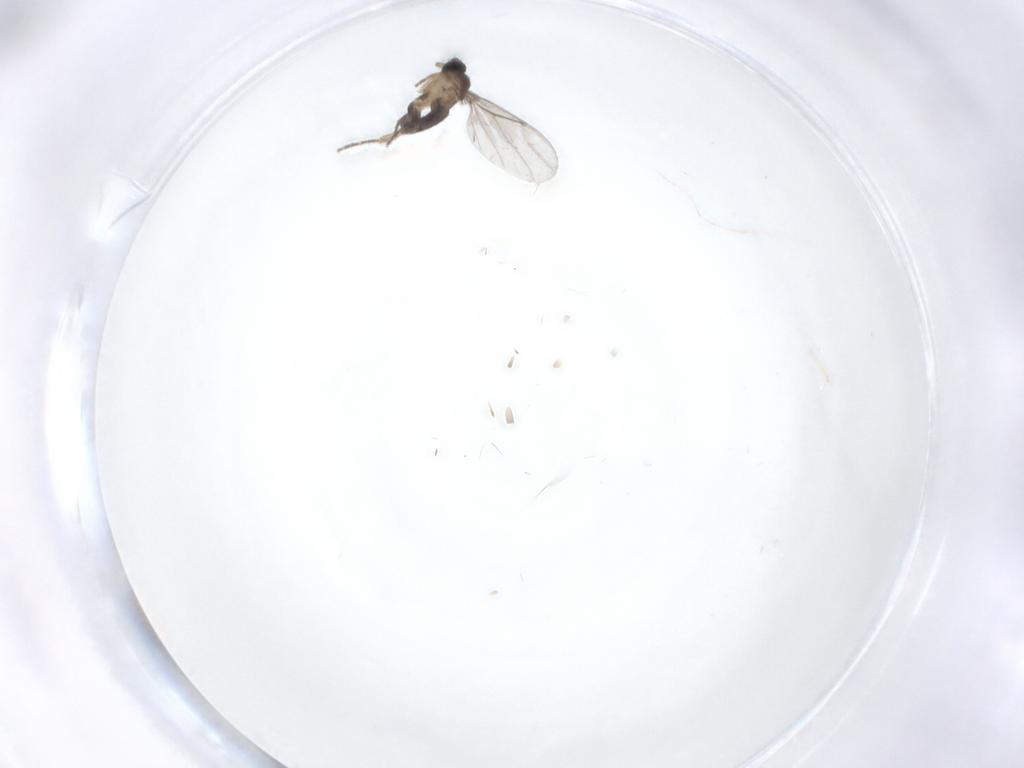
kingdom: Animalia
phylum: Arthropoda
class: Insecta
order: Diptera
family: Phoridae
